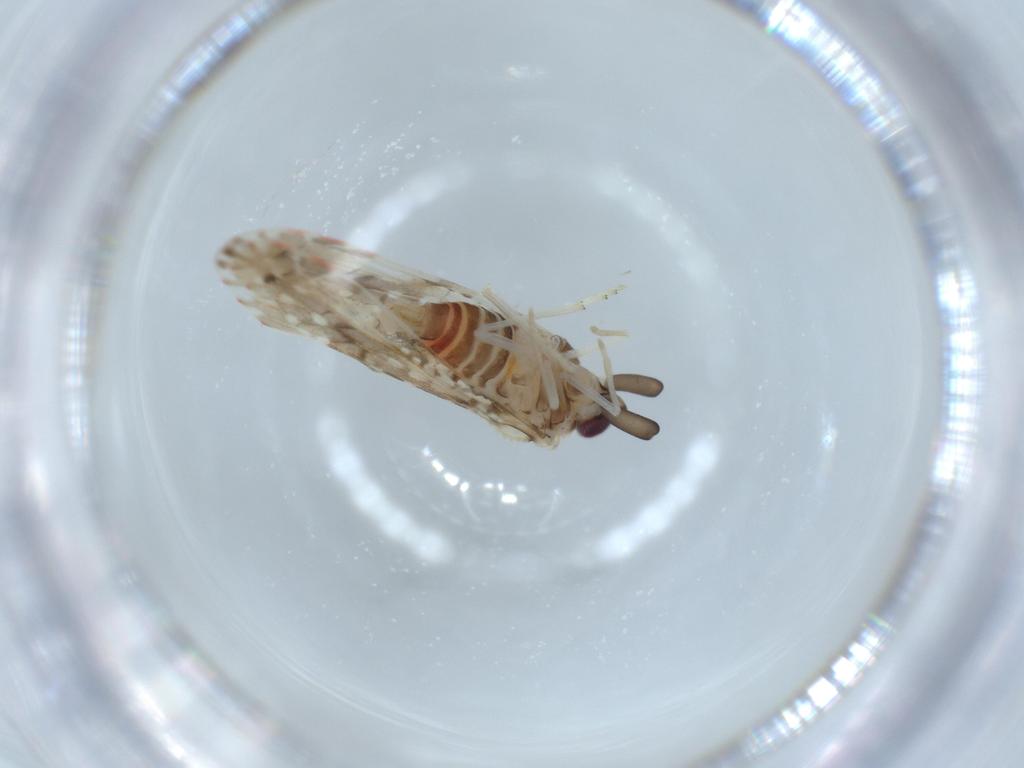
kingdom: Animalia
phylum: Arthropoda
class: Insecta
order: Hemiptera
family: Derbidae
